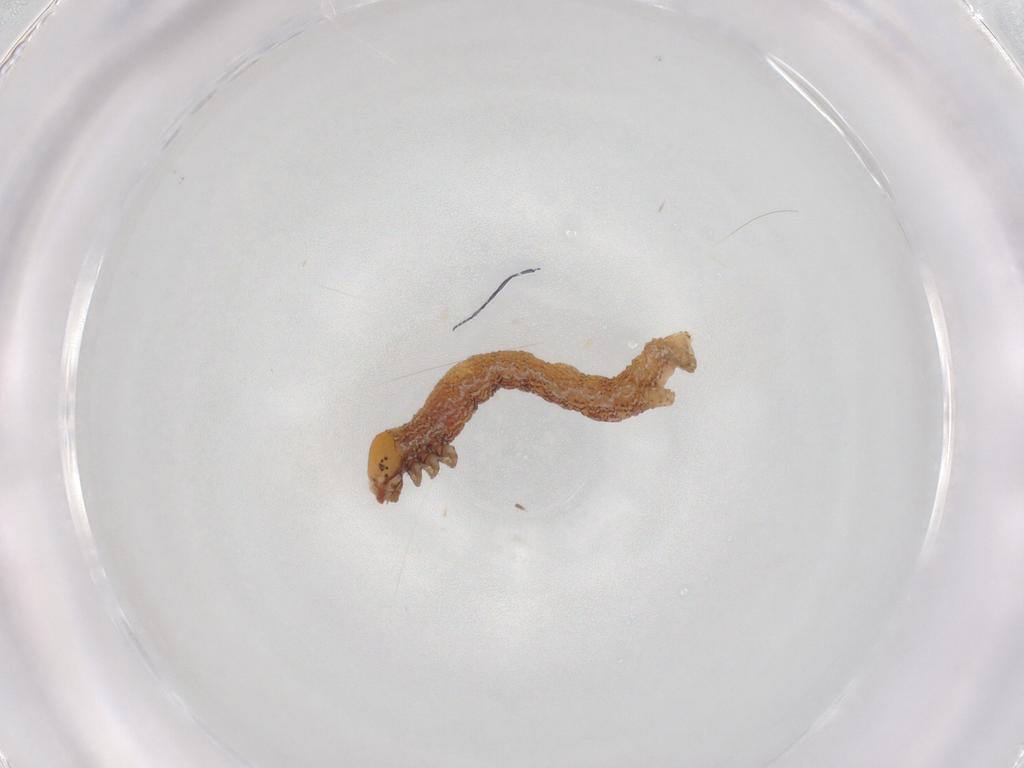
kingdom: Animalia
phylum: Arthropoda
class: Insecta
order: Lepidoptera
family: Geometridae
